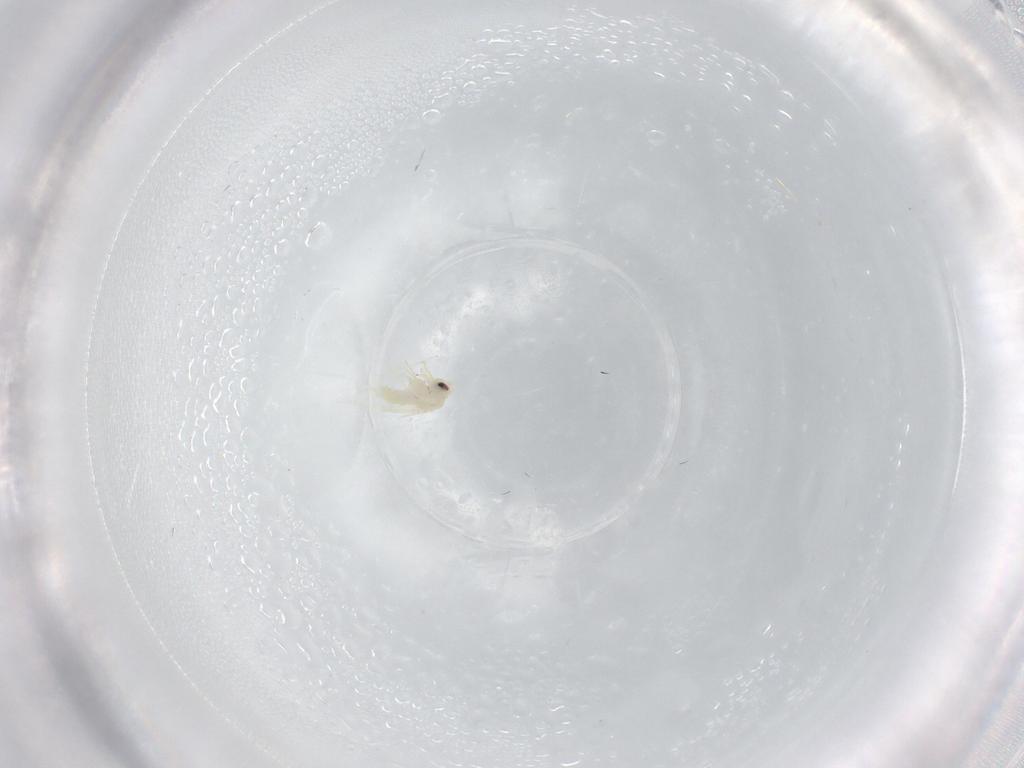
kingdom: Animalia
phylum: Arthropoda
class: Insecta
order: Hemiptera
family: Aleyrodidae
